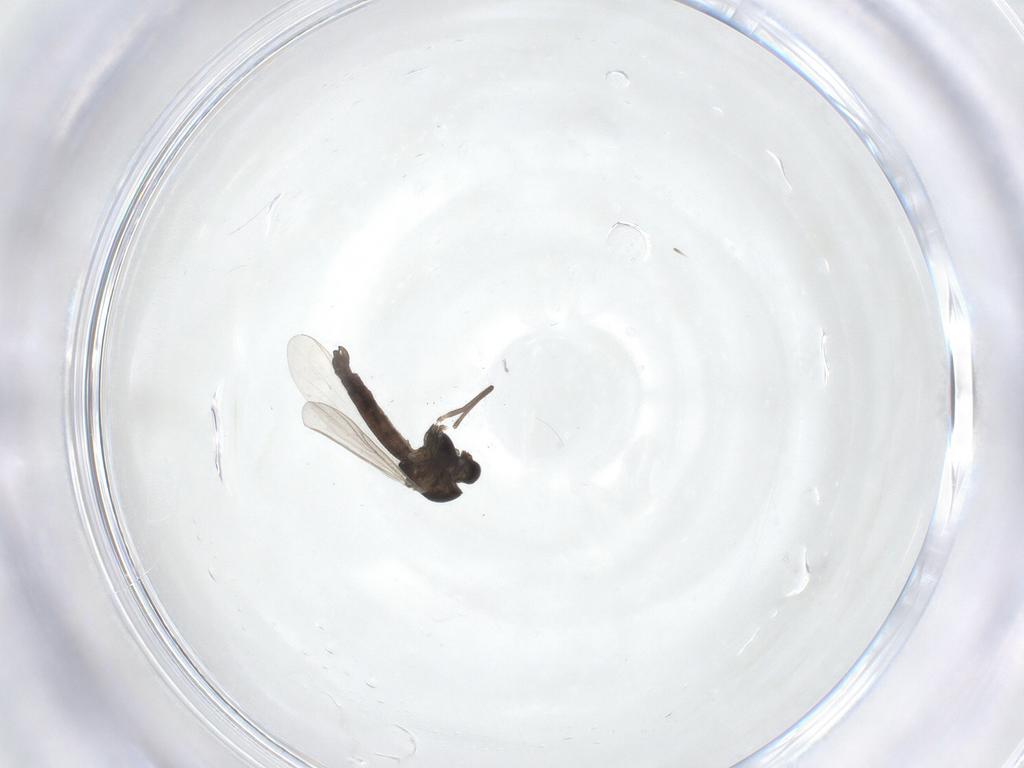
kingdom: Animalia
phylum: Arthropoda
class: Insecta
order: Diptera
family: Chironomidae
